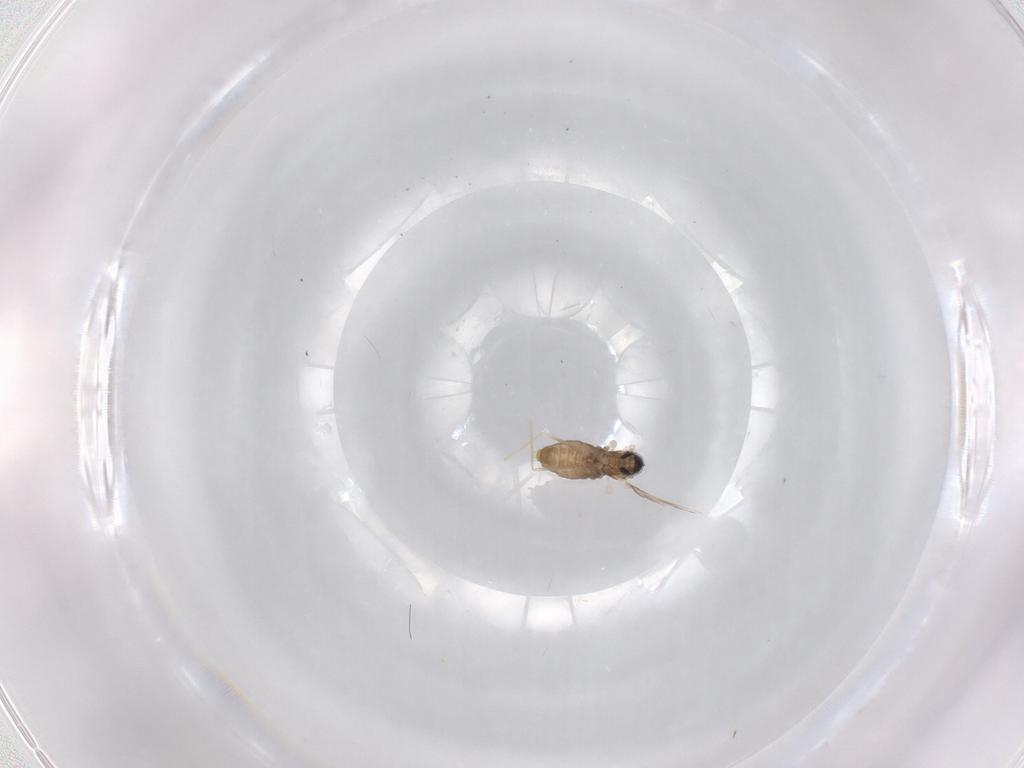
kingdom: Animalia
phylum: Arthropoda
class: Insecta
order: Diptera
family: Cecidomyiidae
